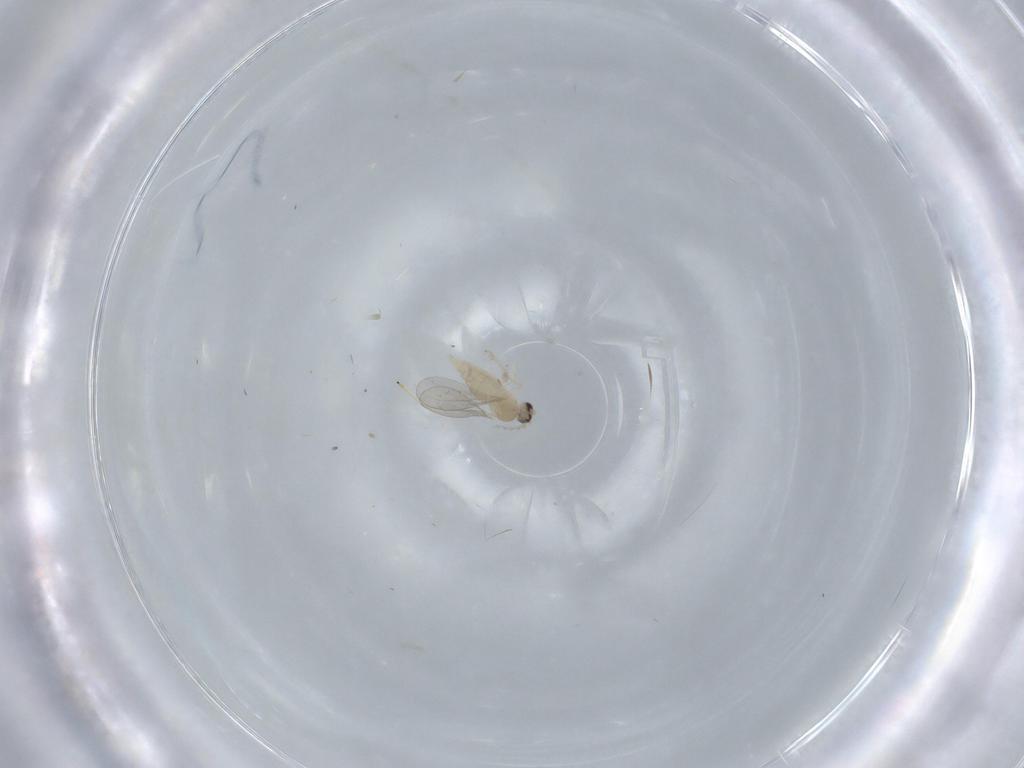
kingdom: Animalia
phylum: Arthropoda
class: Insecta
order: Diptera
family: Cecidomyiidae
